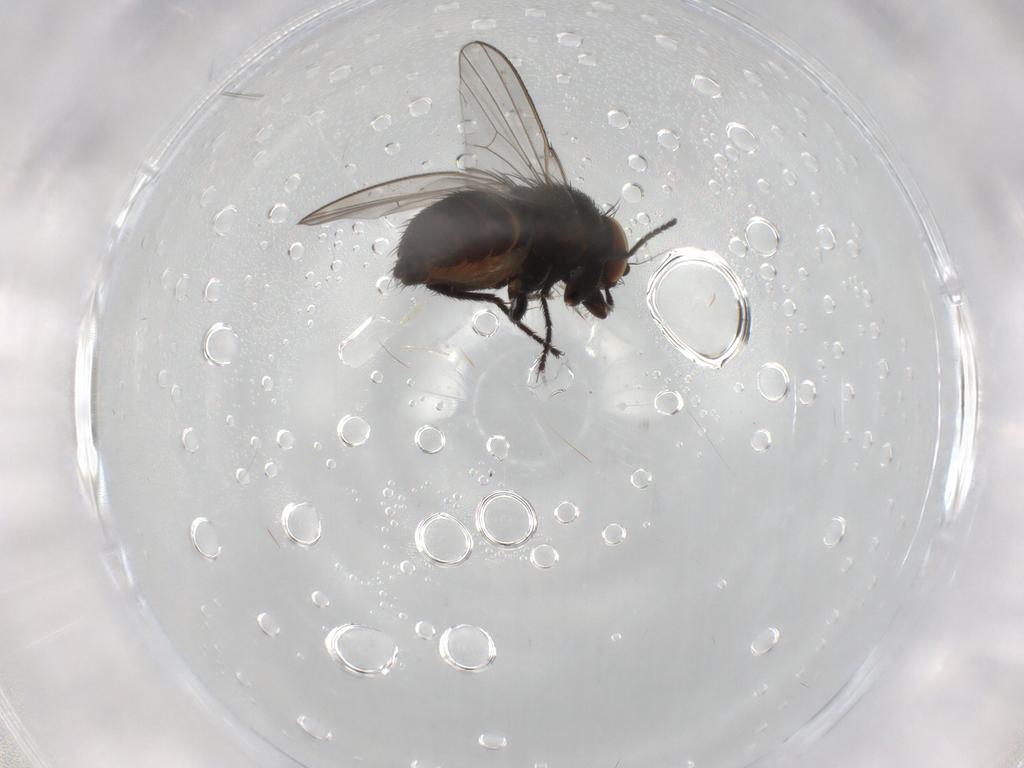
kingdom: Animalia
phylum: Arthropoda
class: Insecta
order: Diptera
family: Milichiidae
